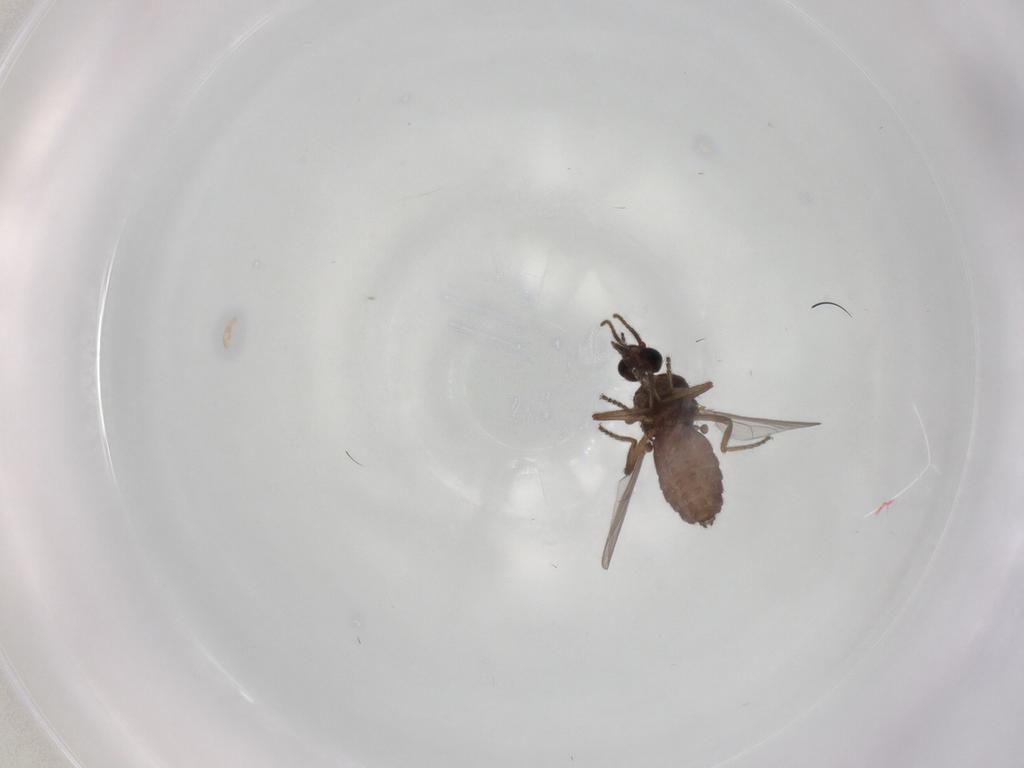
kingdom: Animalia
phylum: Arthropoda
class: Insecta
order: Diptera
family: Ceratopogonidae
